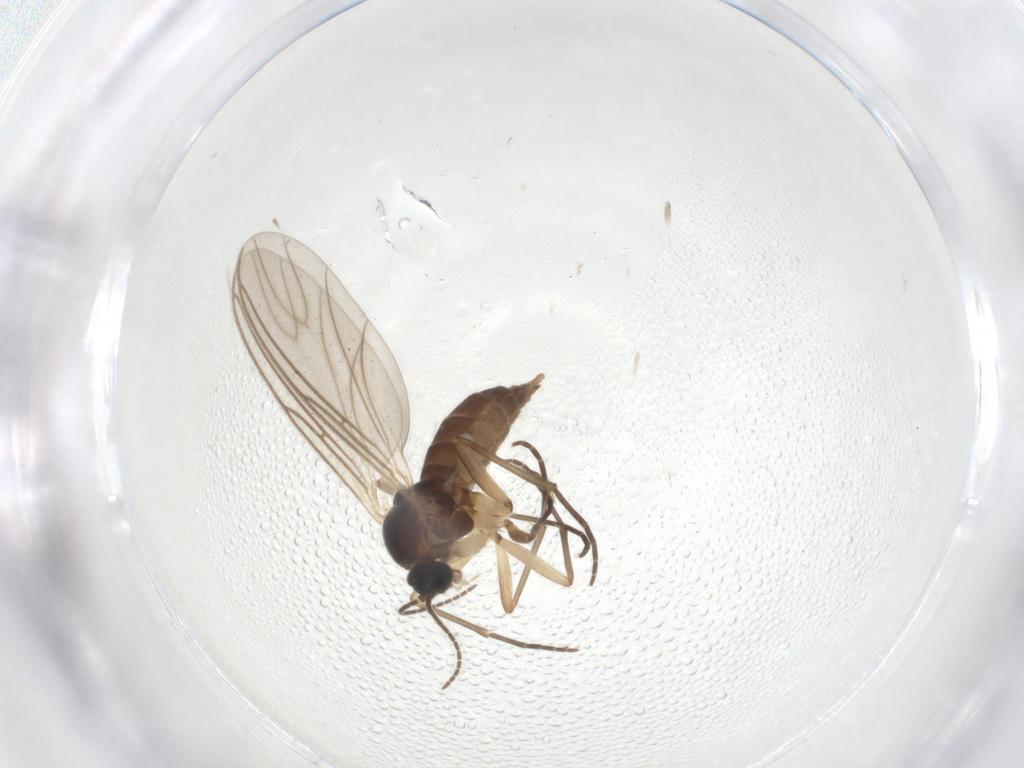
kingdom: Animalia
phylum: Arthropoda
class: Insecta
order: Diptera
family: Sciaridae
